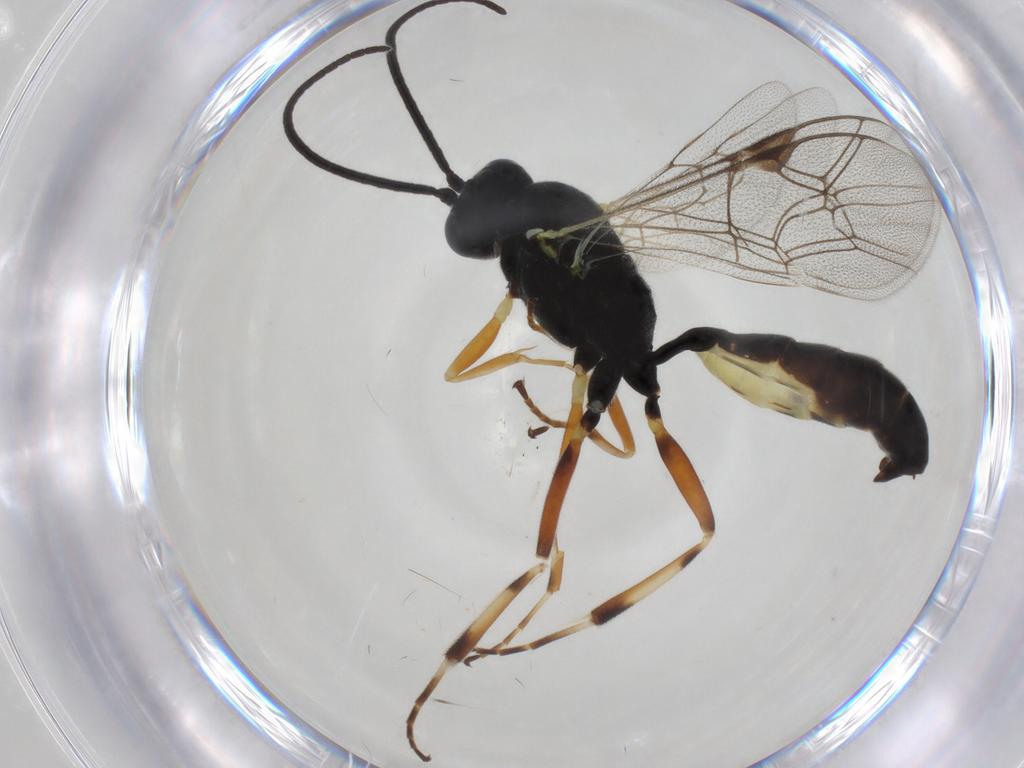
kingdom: Animalia
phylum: Arthropoda
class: Insecta
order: Hymenoptera
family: Ichneumonidae
